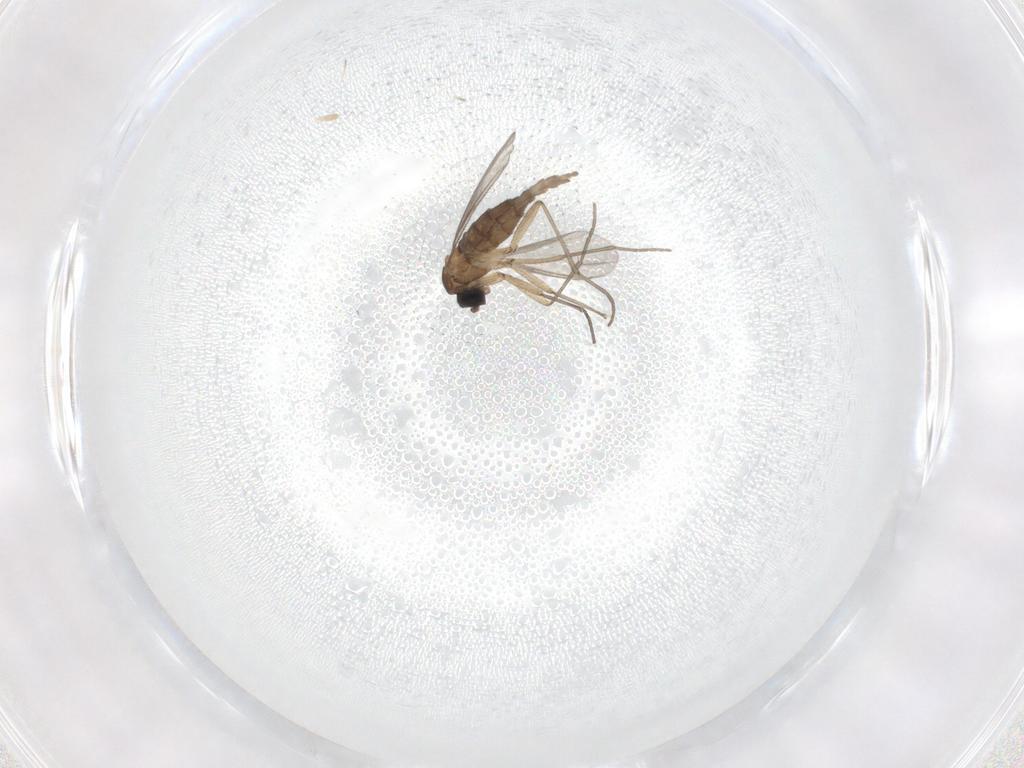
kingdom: Animalia
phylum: Arthropoda
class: Insecta
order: Diptera
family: Sciaridae
